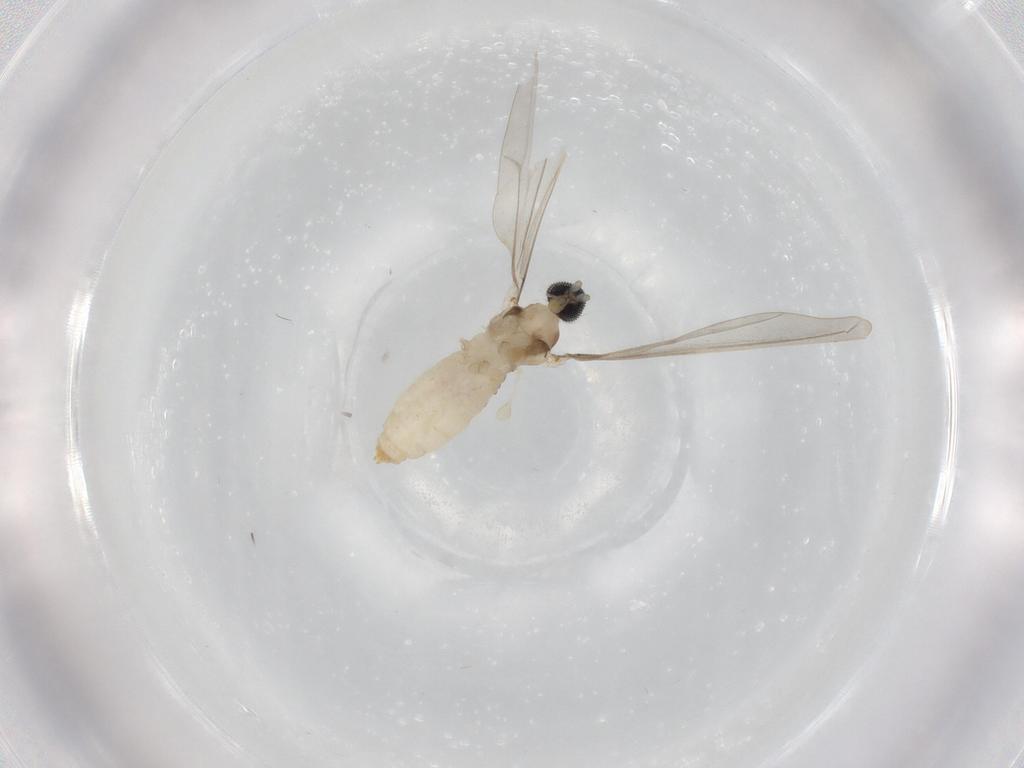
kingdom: Animalia
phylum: Arthropoda
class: Insecta
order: Diptera
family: Cecidomyiidae
